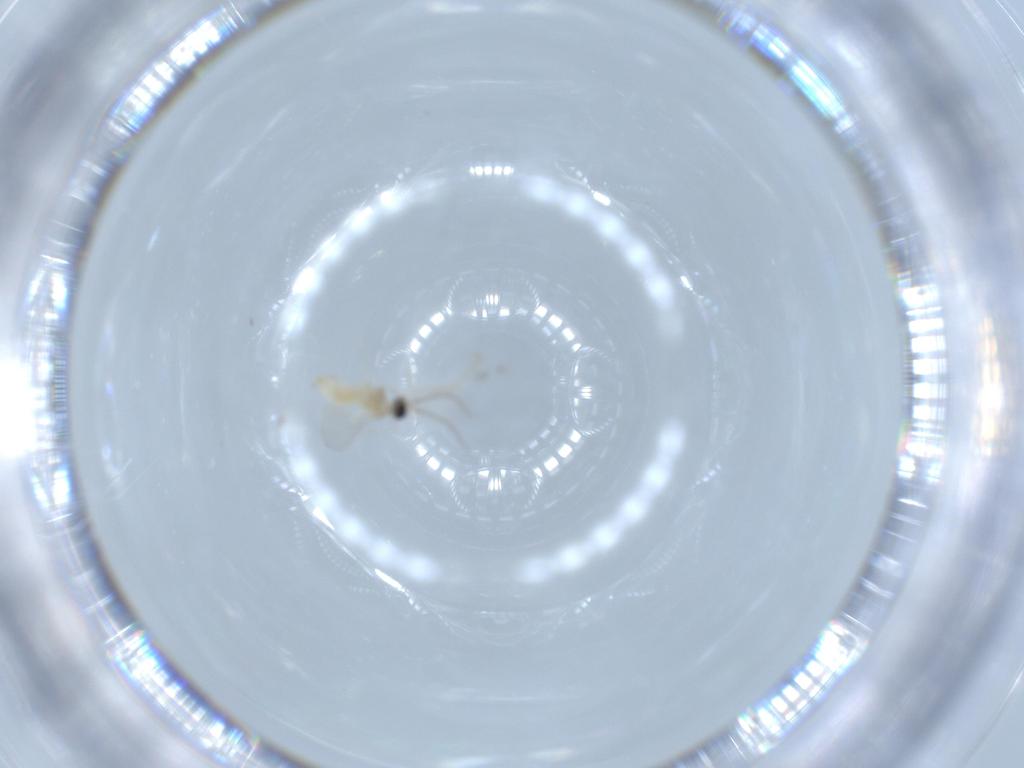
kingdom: Animalia
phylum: Arthropoda
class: Insecta
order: Diptera
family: Cecidomyiidae
